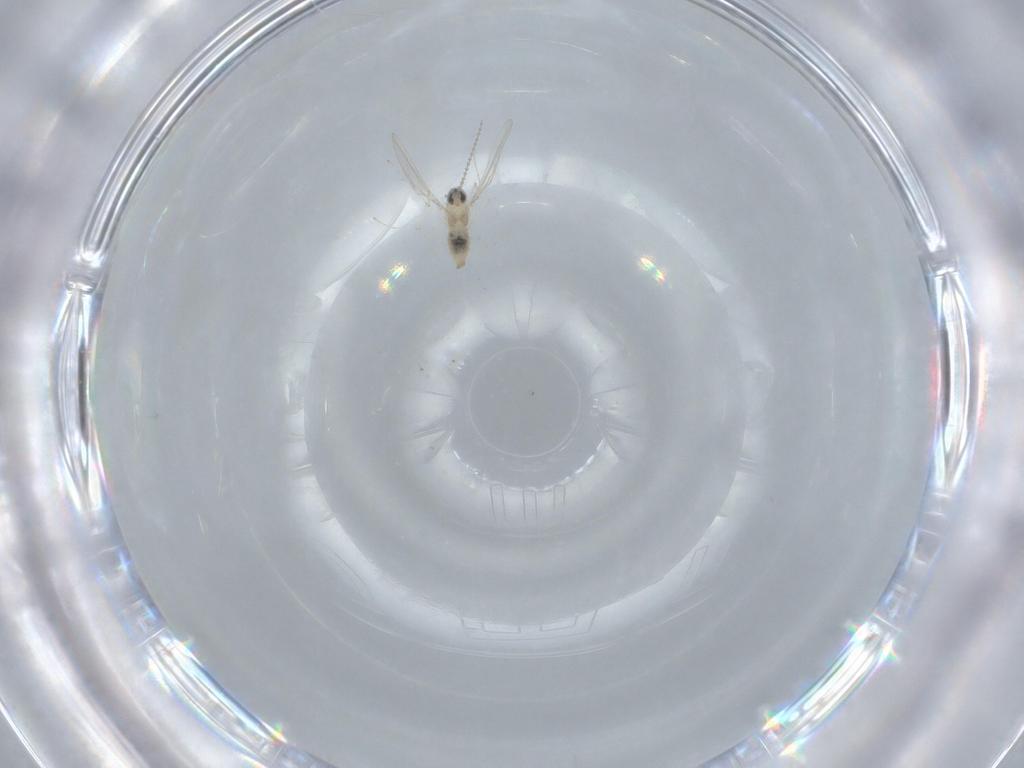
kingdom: Animalia
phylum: Arthropoda
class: Insecta
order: Diptera
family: Cecidomyiidae
